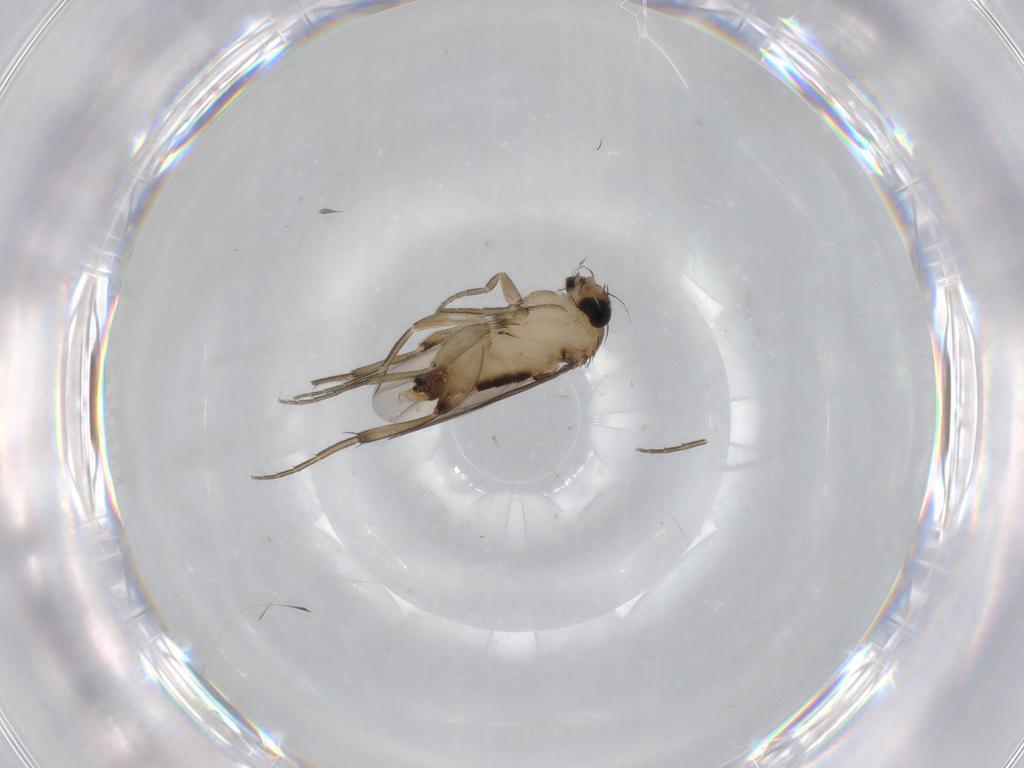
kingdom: Animalia
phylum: Arthropoda
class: Insecta
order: Diptera
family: Phoridae
